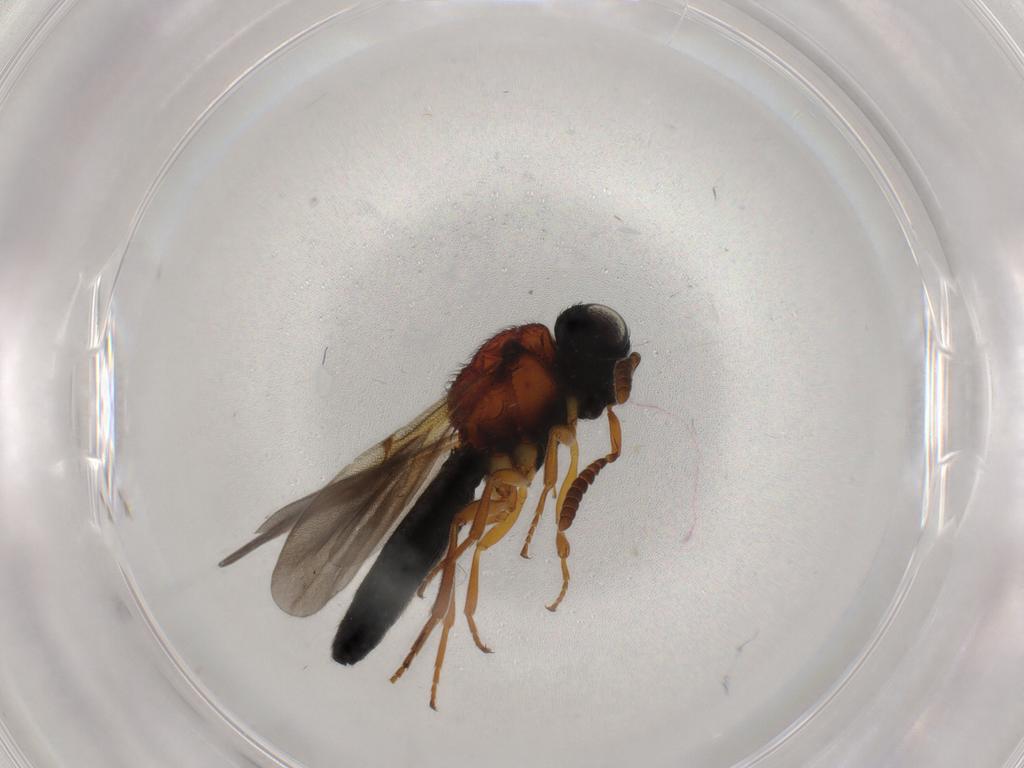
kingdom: Animalia
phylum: Arthropoda
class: Insecta
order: Hymenoptera
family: Scelionidae
